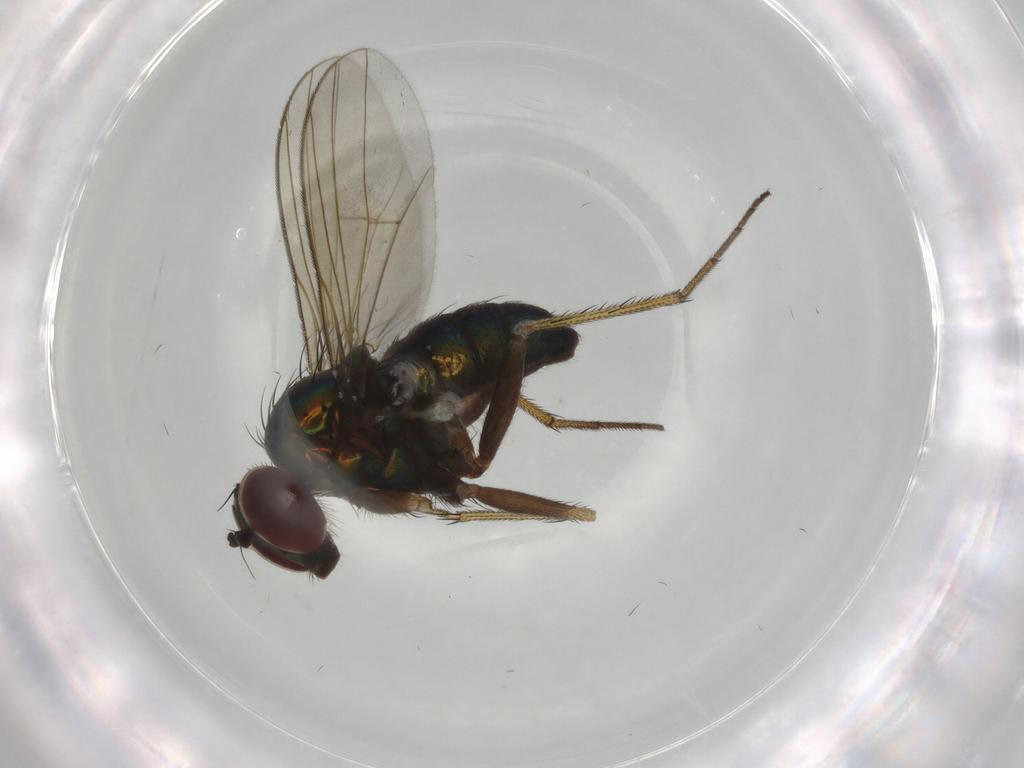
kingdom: Animalia
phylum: Arthropoda
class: Insecta
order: Diptera
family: Dolichopodidae
